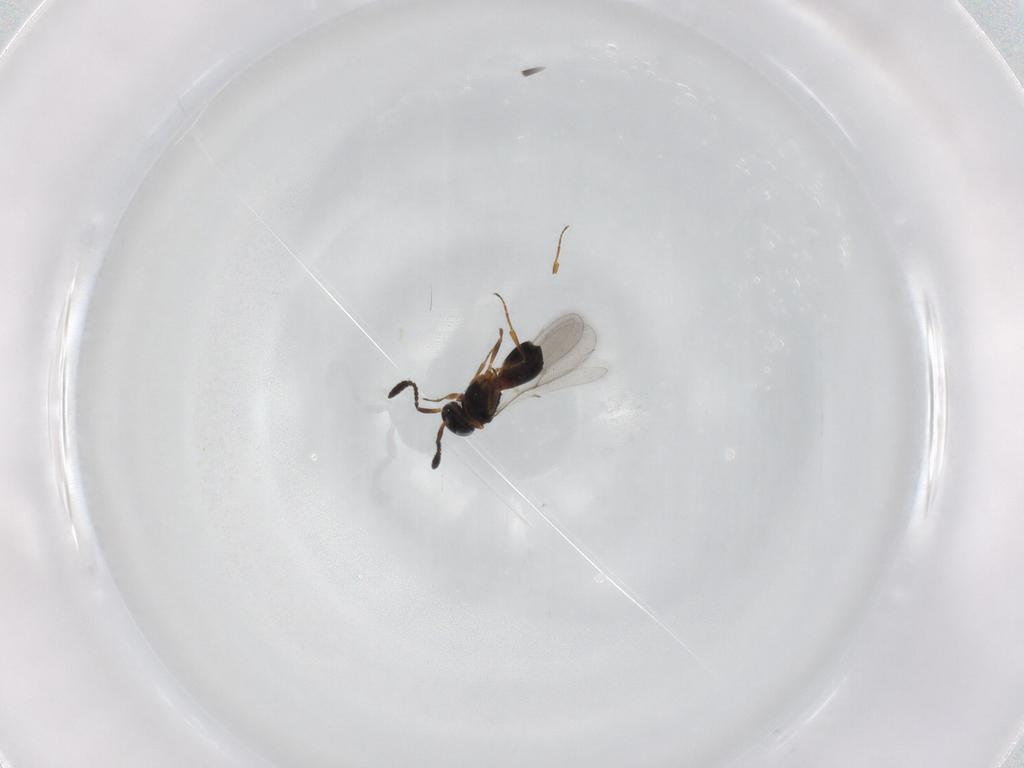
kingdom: Animalia
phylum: Arthropoda
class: Insecta
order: Hymenoptera
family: Scelionidae
